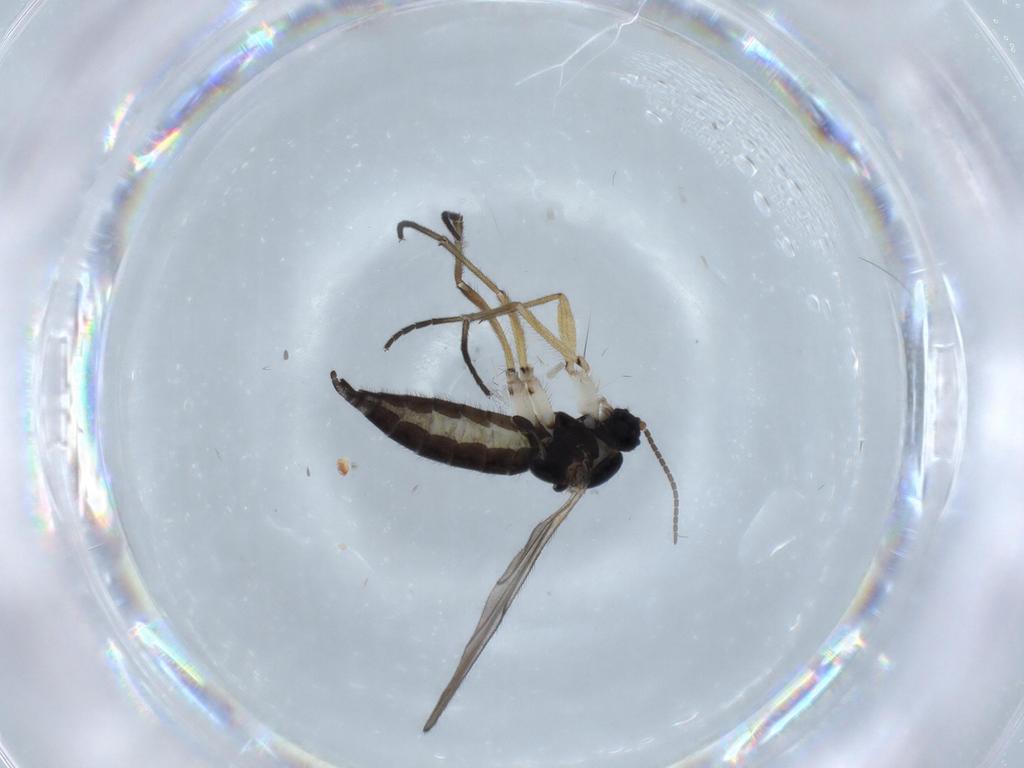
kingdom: Animalia
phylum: Arthropoda
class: Insecta
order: Diptera
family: Sciaridae
